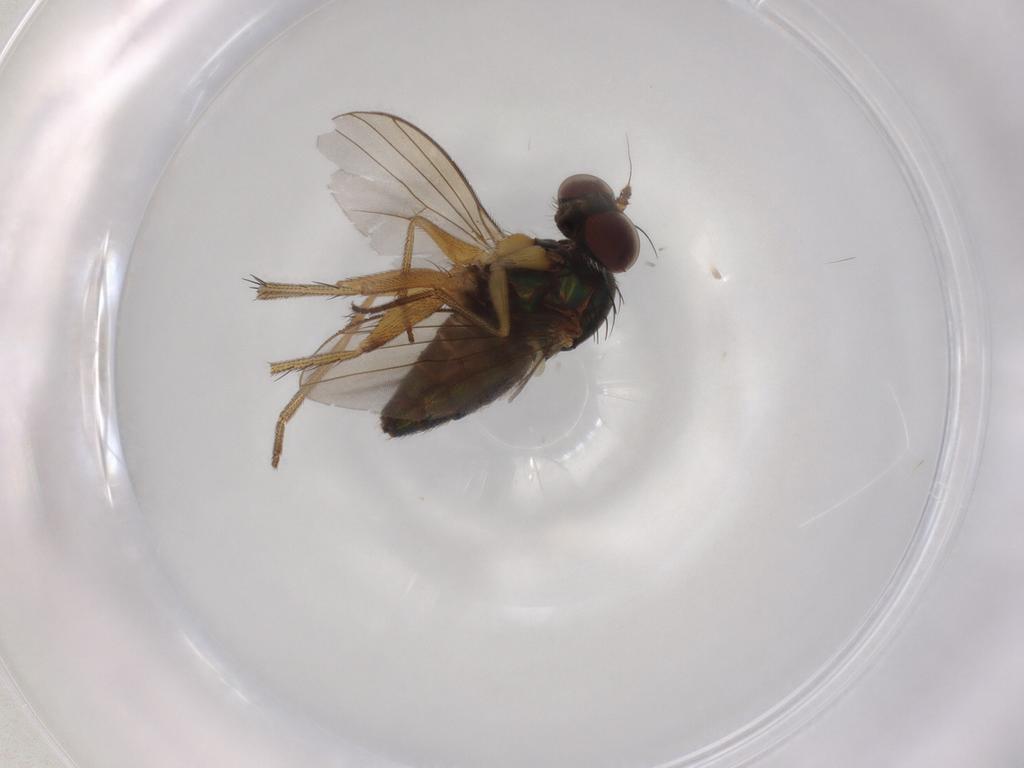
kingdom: Animalia
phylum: Arthropoda
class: Insecta
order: Diptera
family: Dolichopodidae
